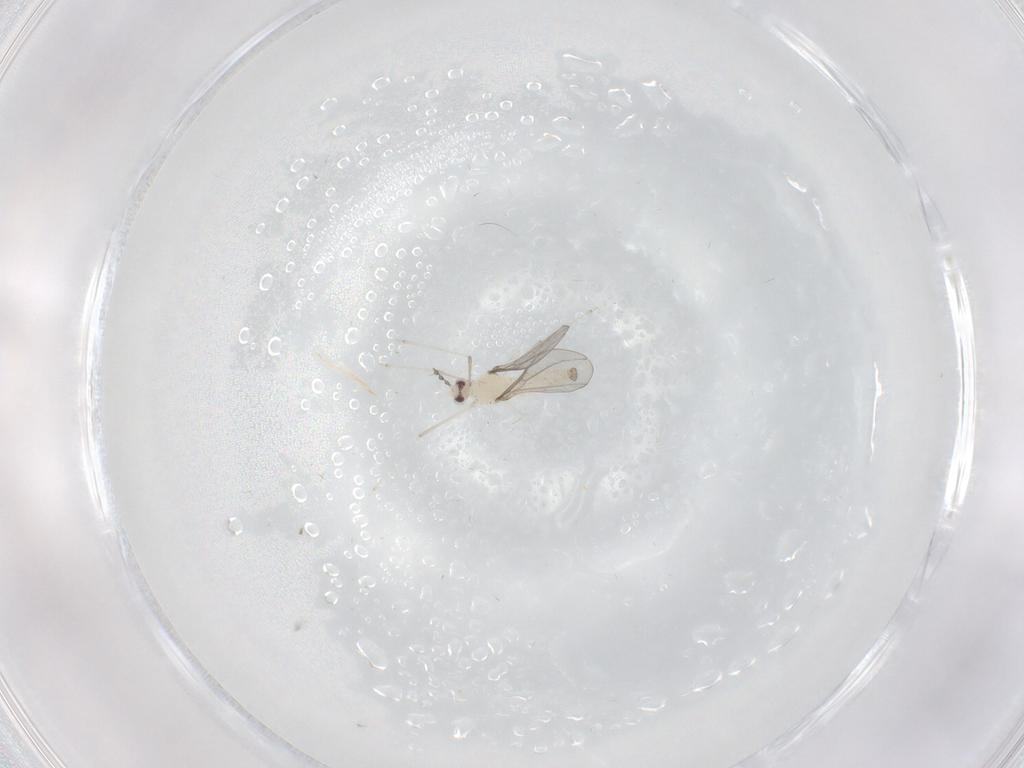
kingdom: Animalia
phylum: Arthropoda
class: Insecta
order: Diptera
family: Cecidomyiidae
